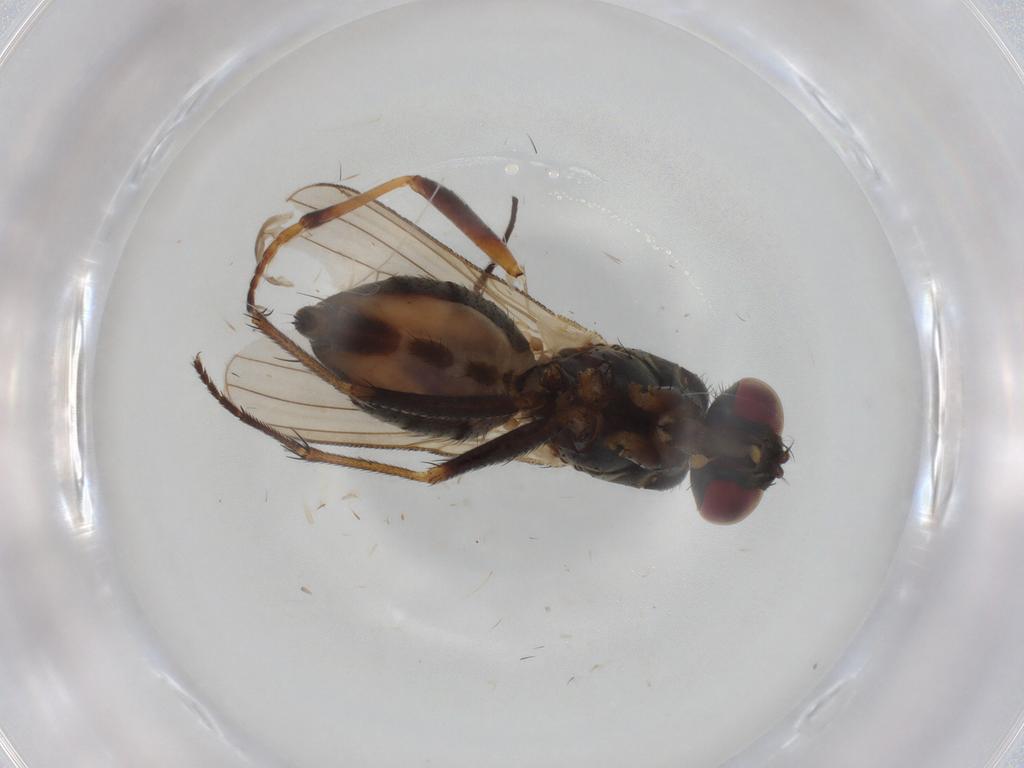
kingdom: Animalia
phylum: Arthropoda
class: Insecta
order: Diptera
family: Muscidae
